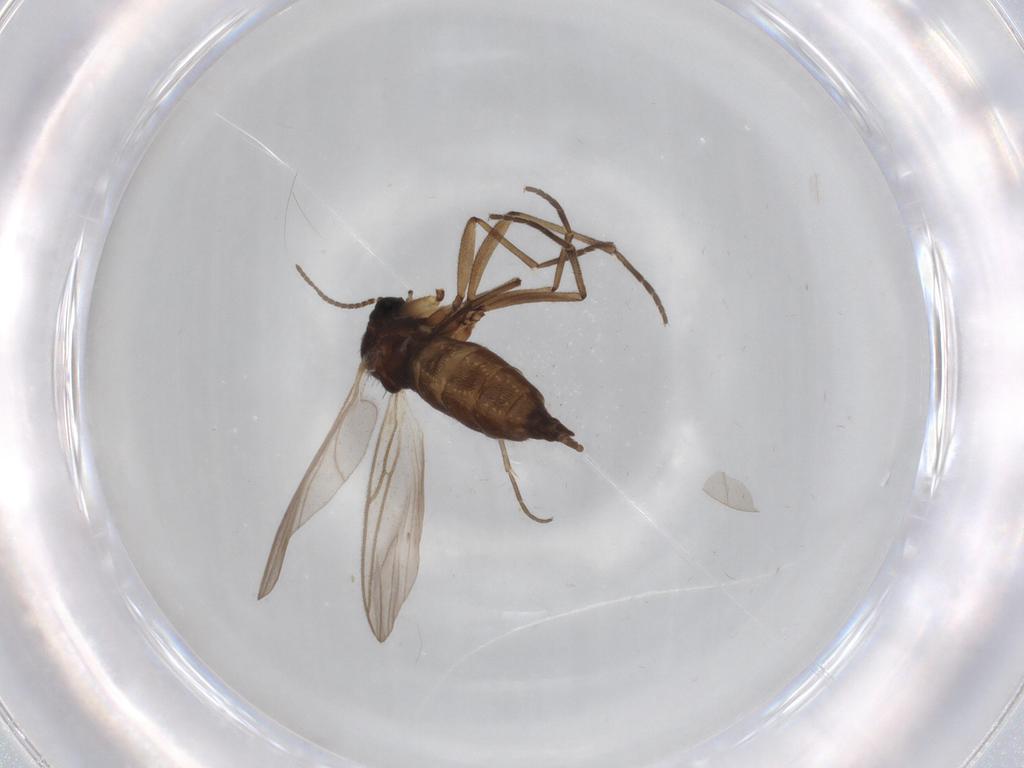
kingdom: Animalia
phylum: Arthropoda
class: Insecta
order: Diptera
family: Sciaridae
